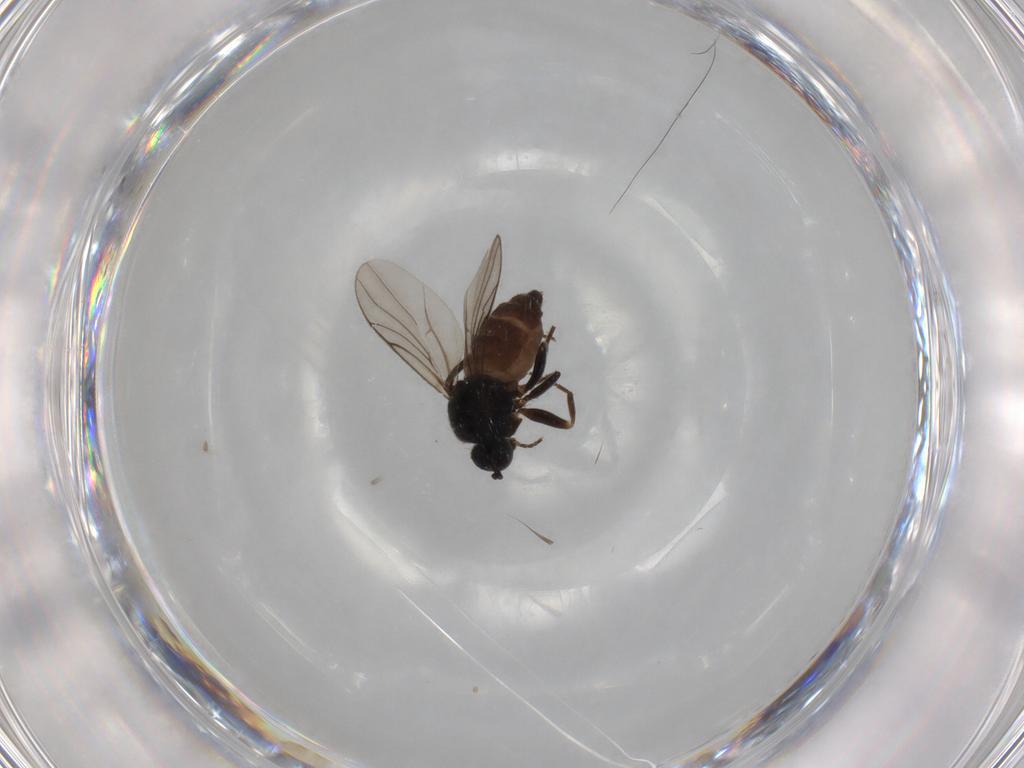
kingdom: Animalia
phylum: Arthropoda
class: Insecta
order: Diptera
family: Muscidae
